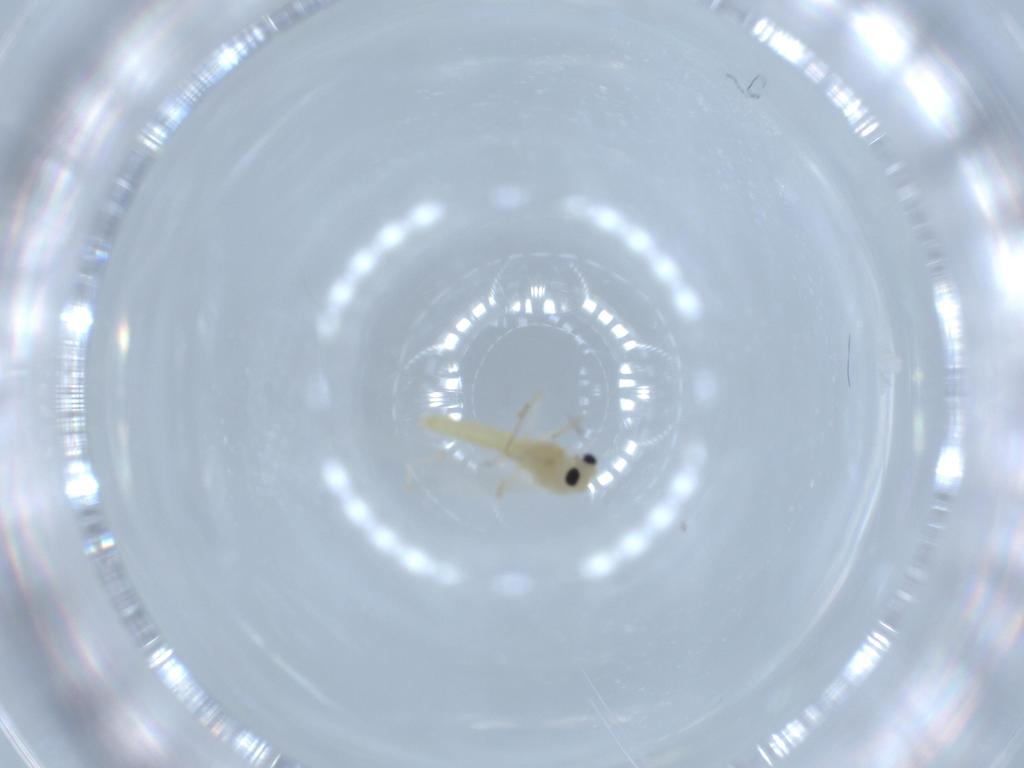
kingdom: Animalia
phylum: Arthropoda
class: Insecta
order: Diptera
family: Chironomidae
